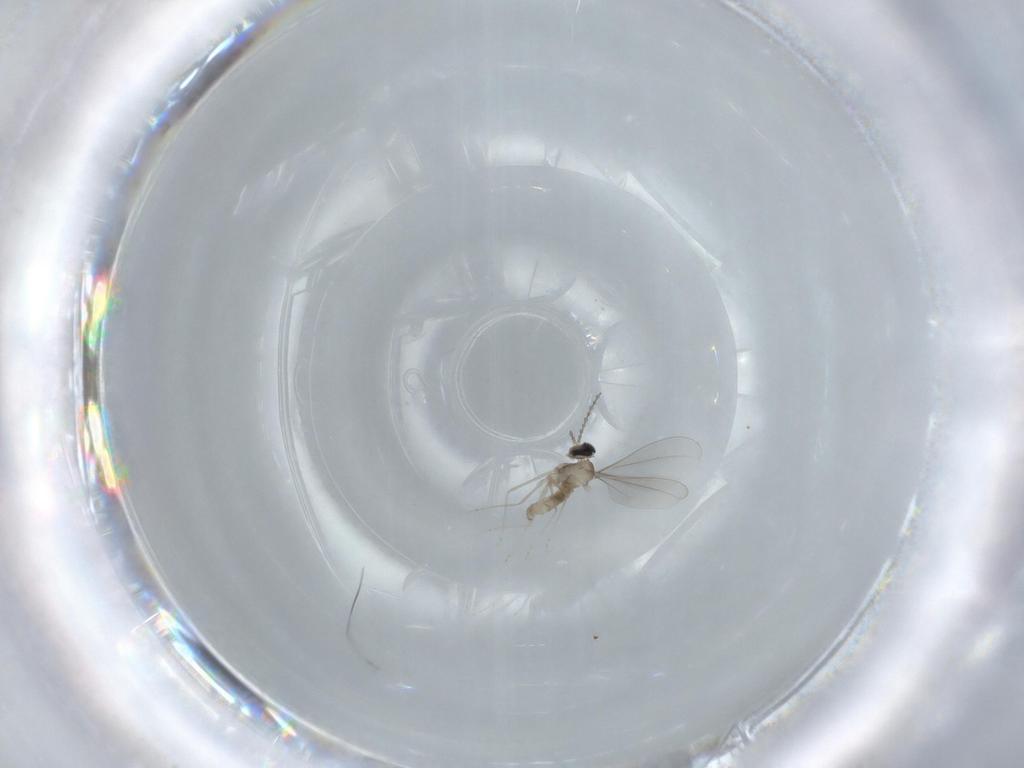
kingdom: Animalia
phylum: Arthropoda
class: Insecta
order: Diptera
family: Cecidomyiidae
